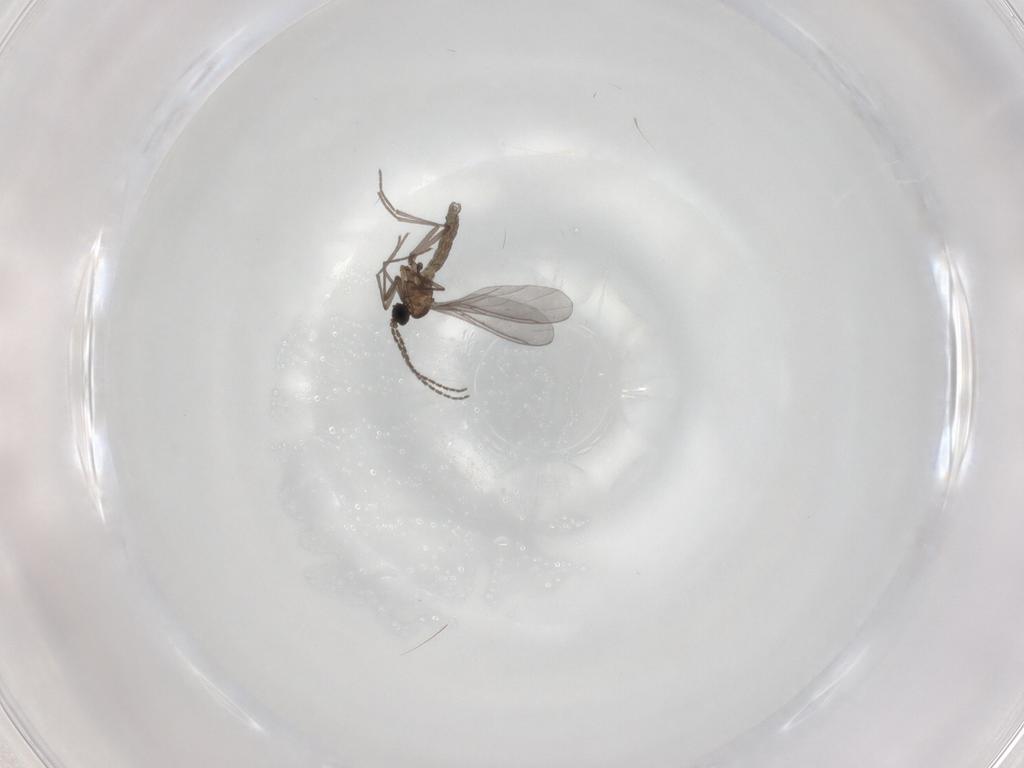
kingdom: Animalia
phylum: Arthropoda
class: Insecta
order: Diptera
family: Sciaridae
